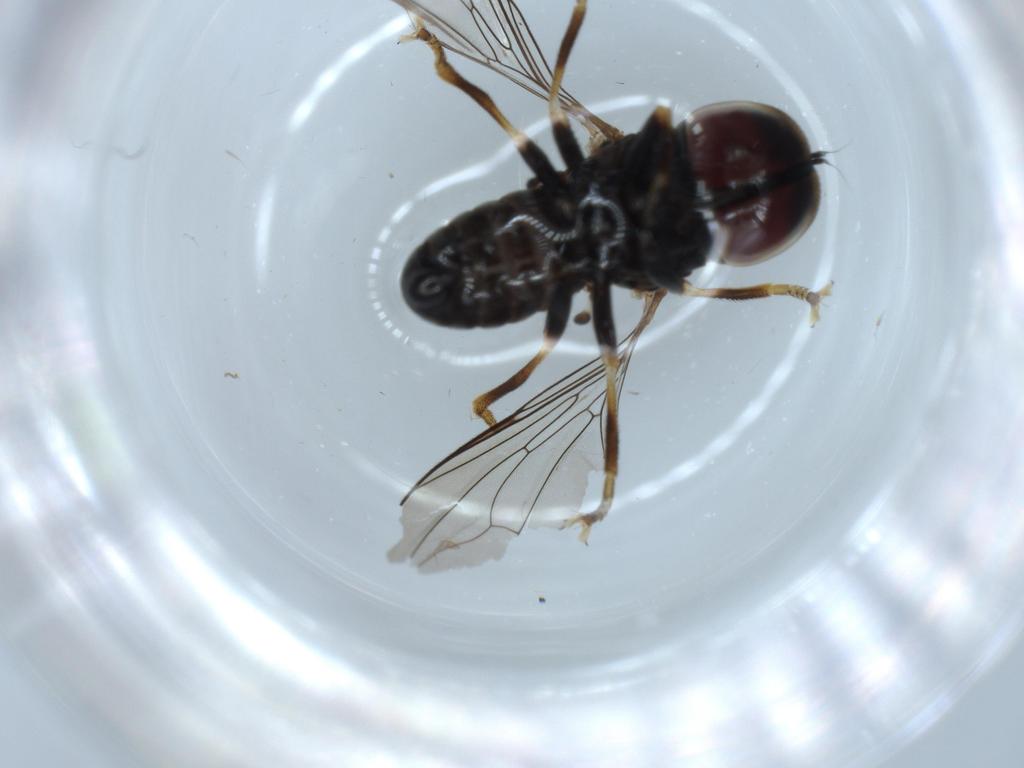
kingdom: Animalia
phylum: Arthropoda
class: Insecta
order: Diptera
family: Pipunculidae
